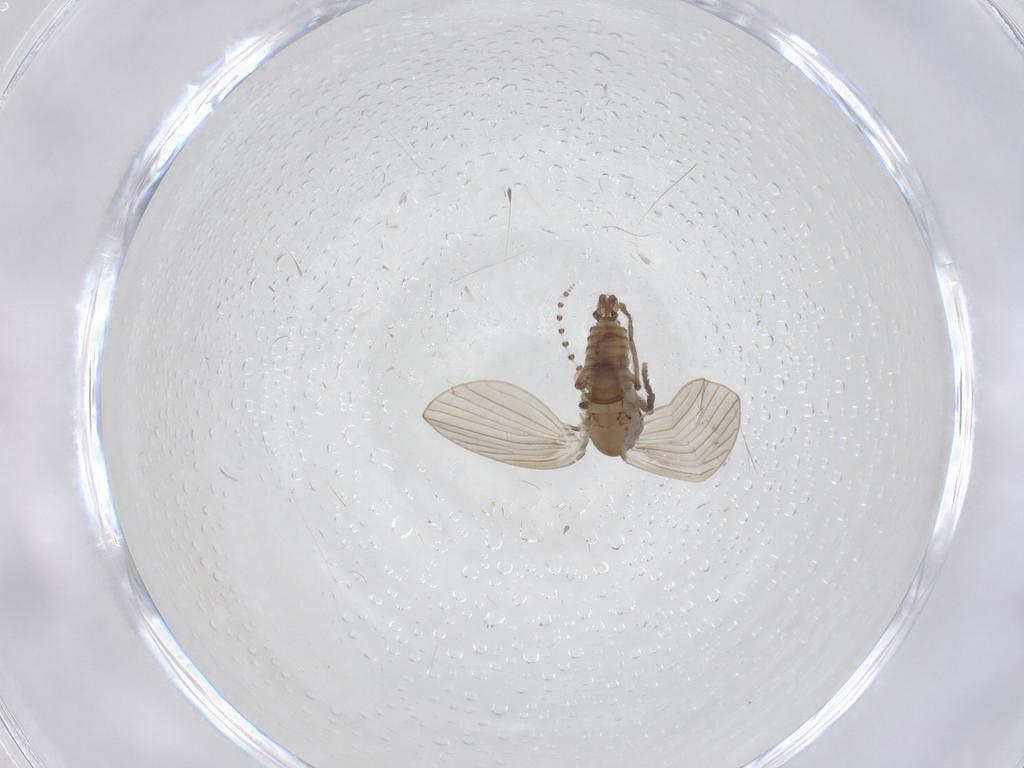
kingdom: Animalia
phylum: Arthropoda
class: Insecta
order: Diptera
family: Psychodidae
